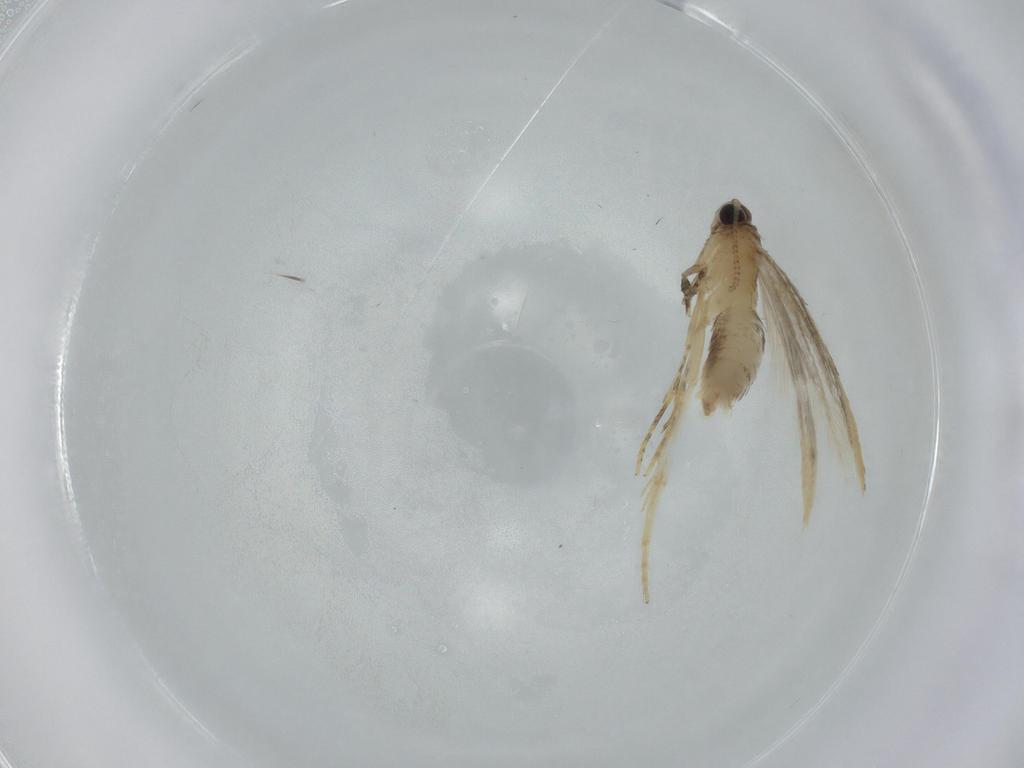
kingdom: Animalia
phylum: Arthropoda
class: Insecta
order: Lepidoptera
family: Tineidae
